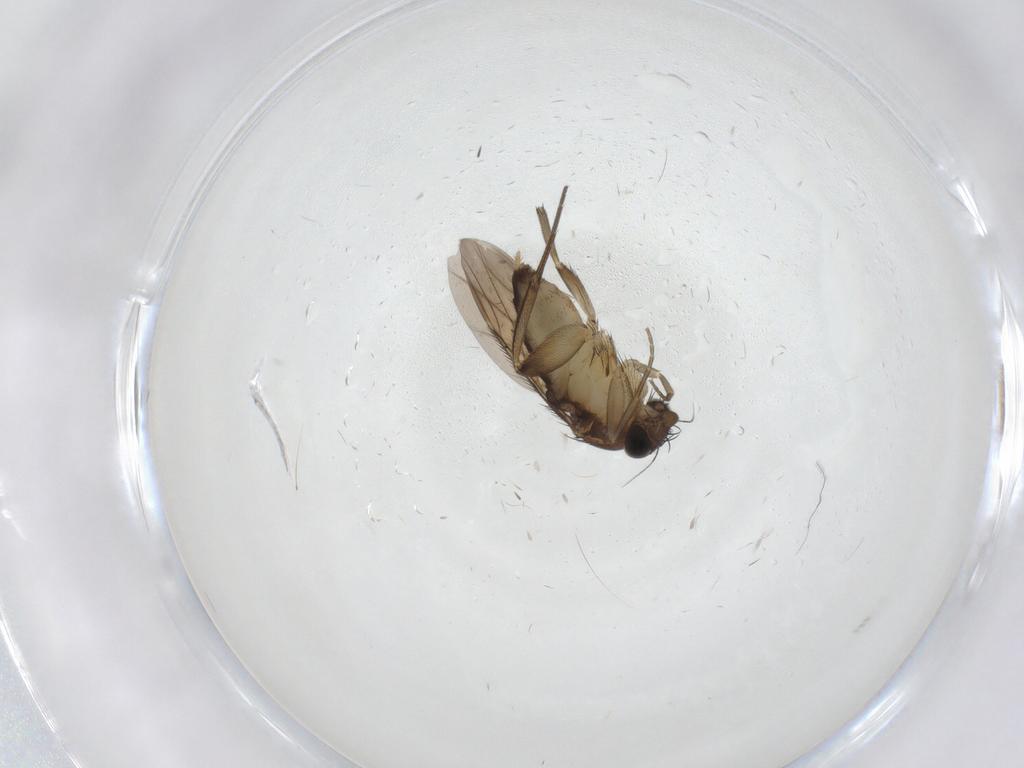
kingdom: Animalia
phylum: Arthropoda
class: Insecta
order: Diptera
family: Phoridae
